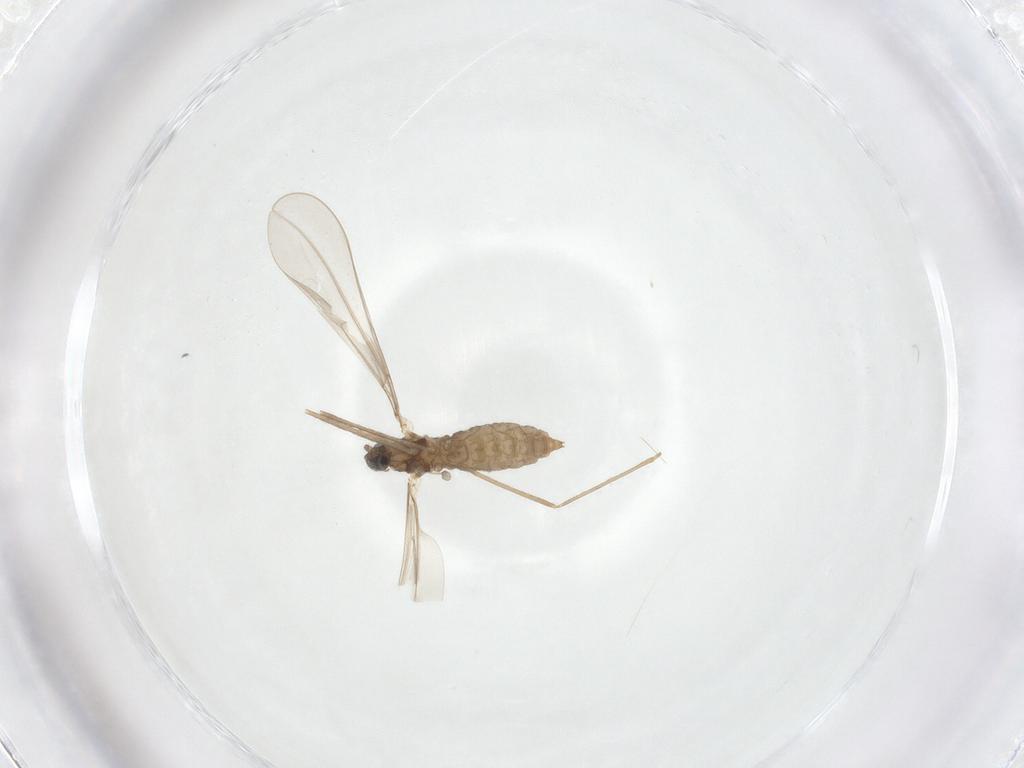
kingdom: Animalia
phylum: Arthropoda
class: Insecta
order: Diptera
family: Cecidomyiidae
